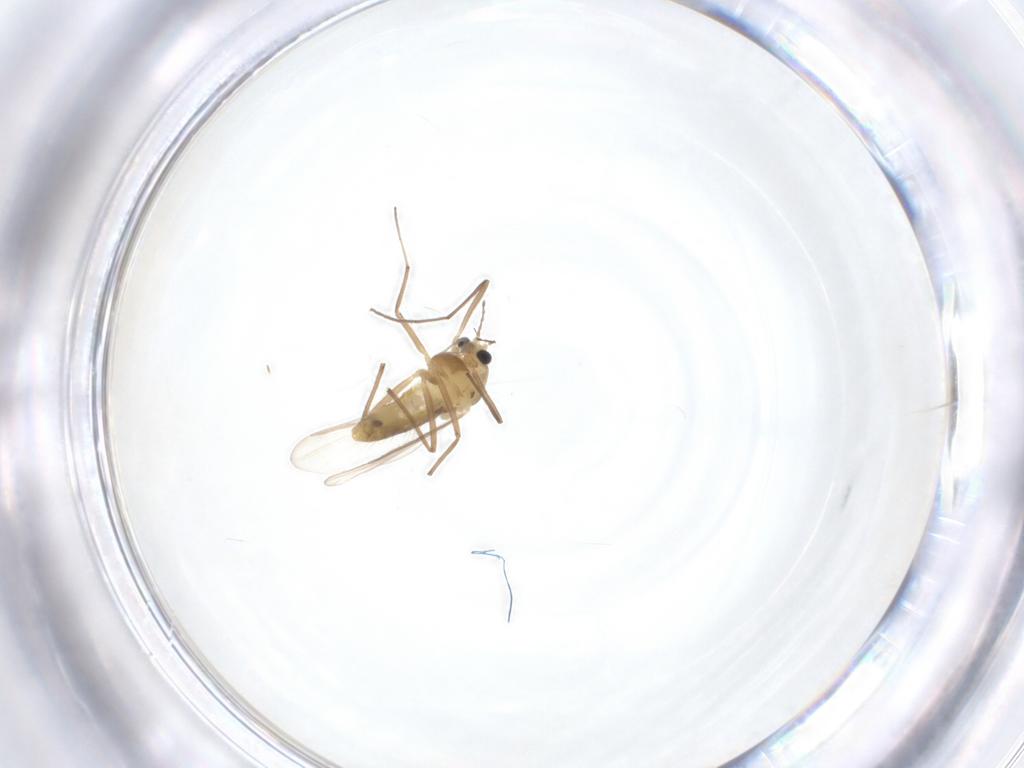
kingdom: Animalia
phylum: Arthropoda
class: Insecta
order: Diptera
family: Chironomidae
